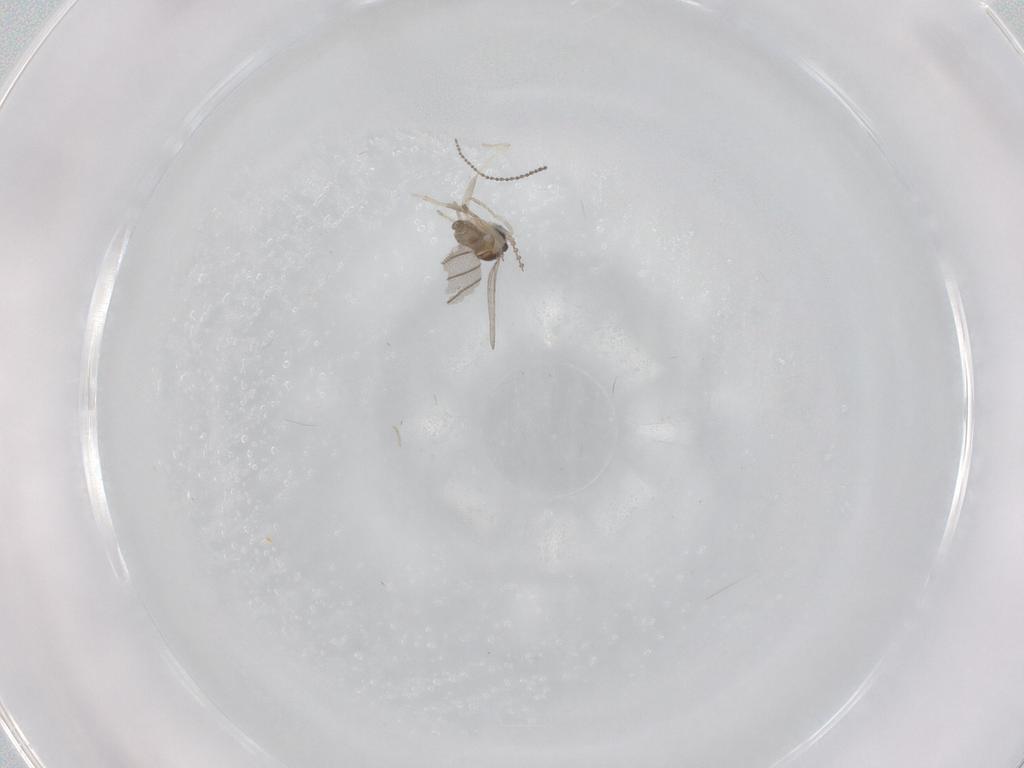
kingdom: Animalia
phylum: Arthropoda
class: Insecta
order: Diptera
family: Cecidomyiidae
